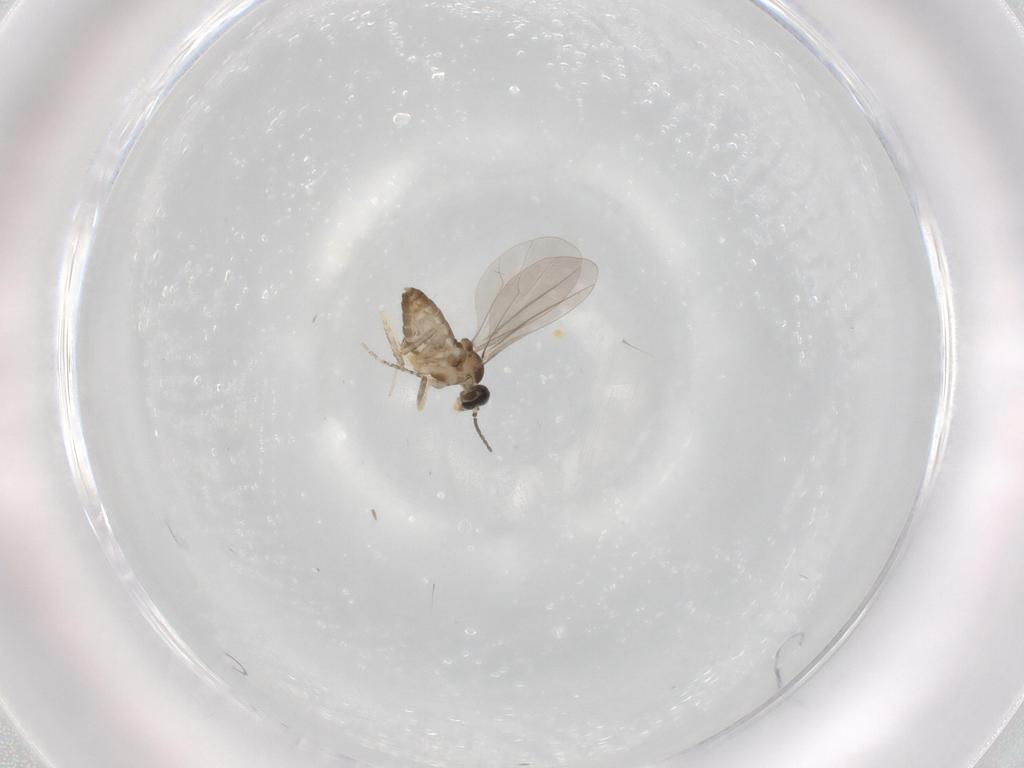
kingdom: Animalia
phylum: Arthropoda
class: Insecta
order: Diptera
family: Cecidomyiidae
